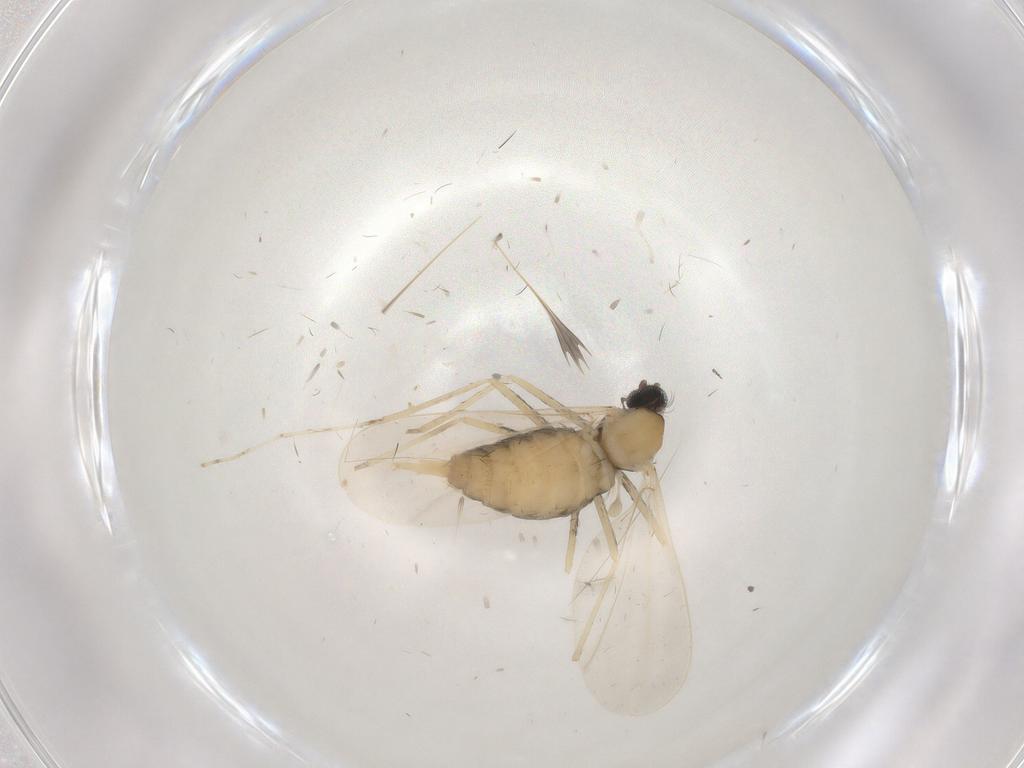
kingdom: Animalia
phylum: Arthropoda
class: Insecta
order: Diptera
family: Cecidomyiidae
